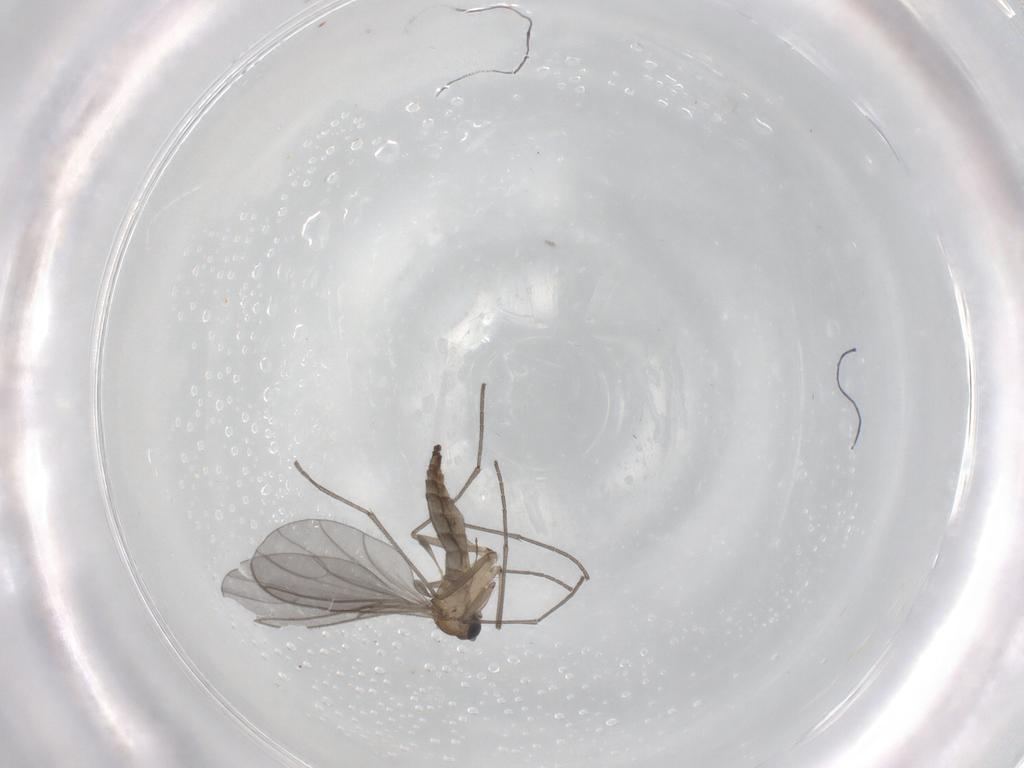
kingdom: Animalia
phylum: Arthropoda
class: Insecta
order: Diptera
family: Sciaridae
